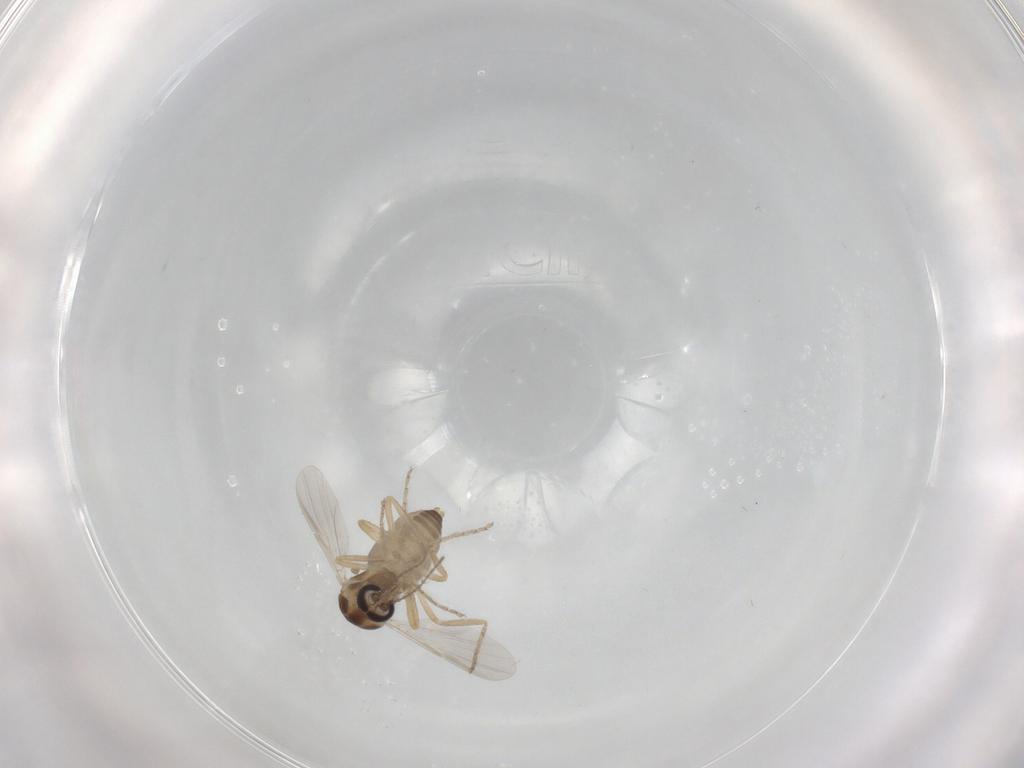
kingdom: Animalia
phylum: Arthropoda
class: Insecta
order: Diptera
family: Ceratopogonidae
